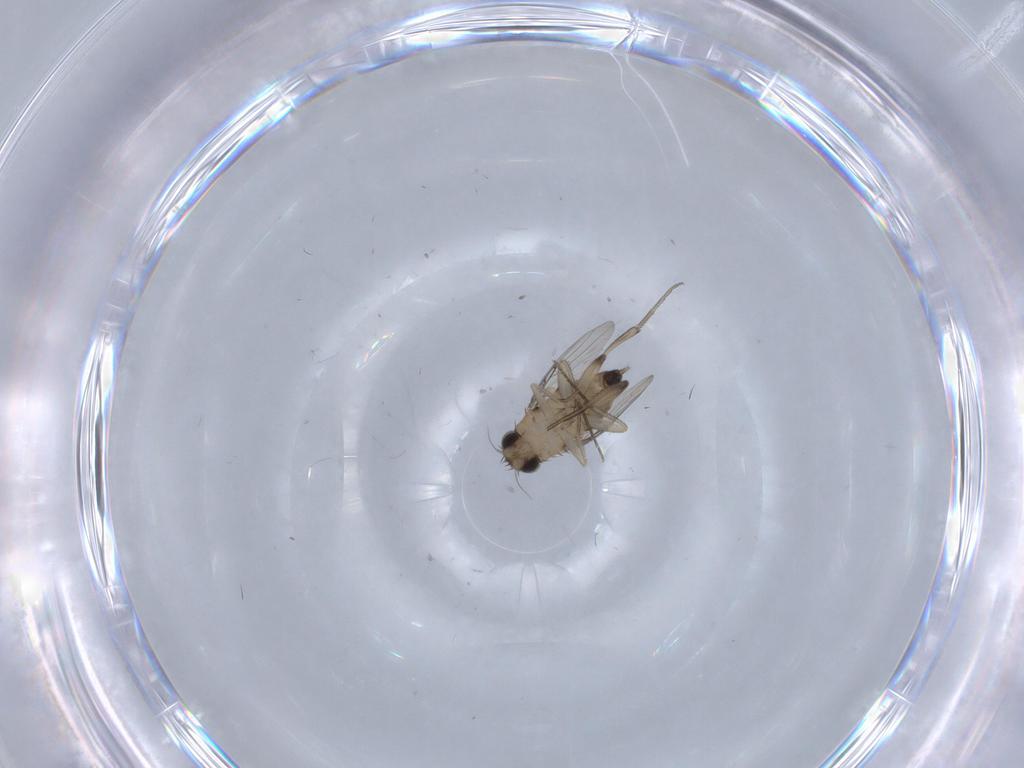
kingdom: Animalia
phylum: Arthropoda
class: Insecta
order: Diptera
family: Phoridae
